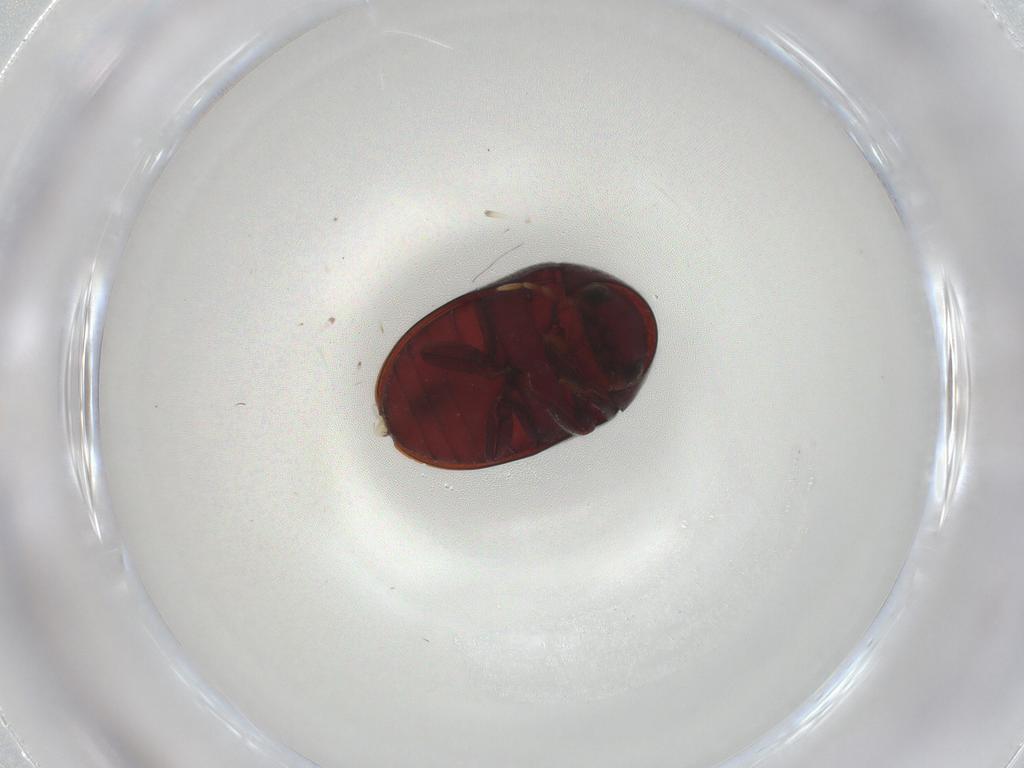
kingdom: Animalia
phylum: Arthropoda
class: Insecta
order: Coleoptera
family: Ptinidae
